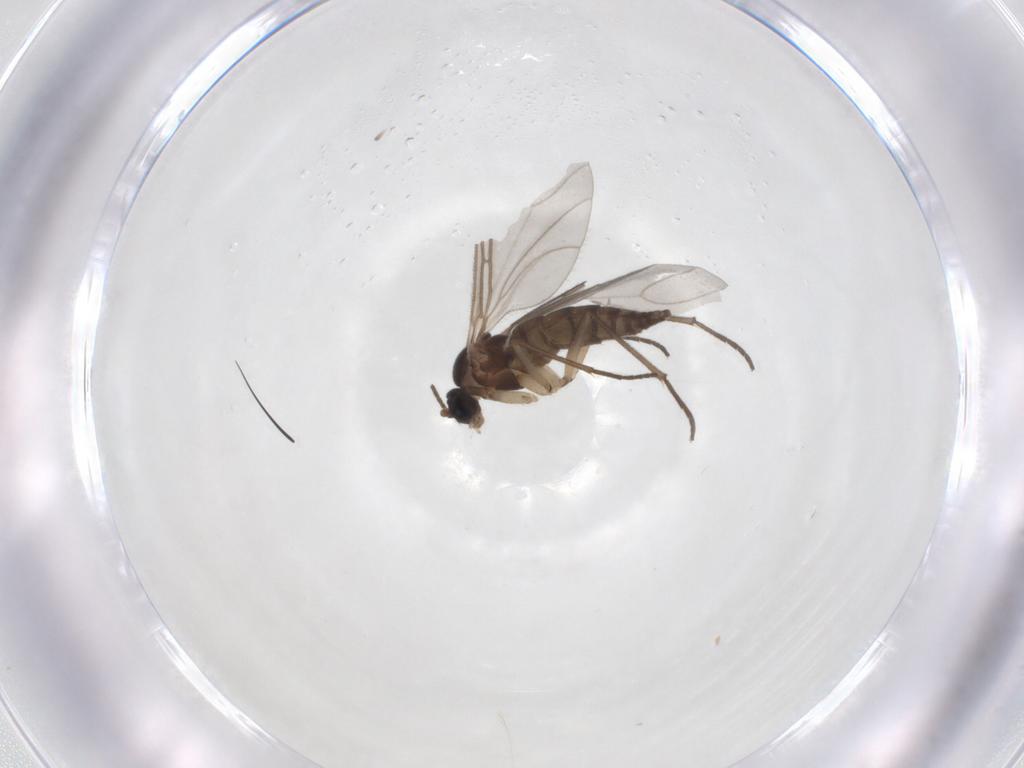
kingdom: Animalia
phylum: Arthropoda
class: Insecta
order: Diptera
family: Sciaridae
